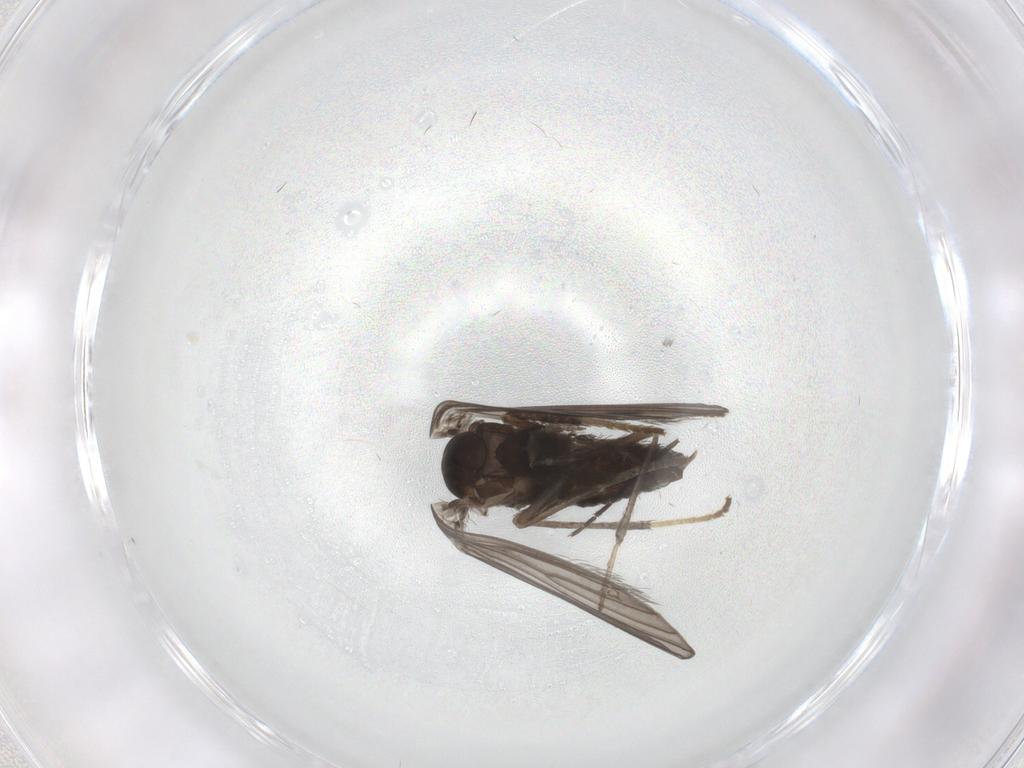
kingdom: Animalia
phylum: Arthropoda
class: Insecta
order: Diptera
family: Psychodidae
